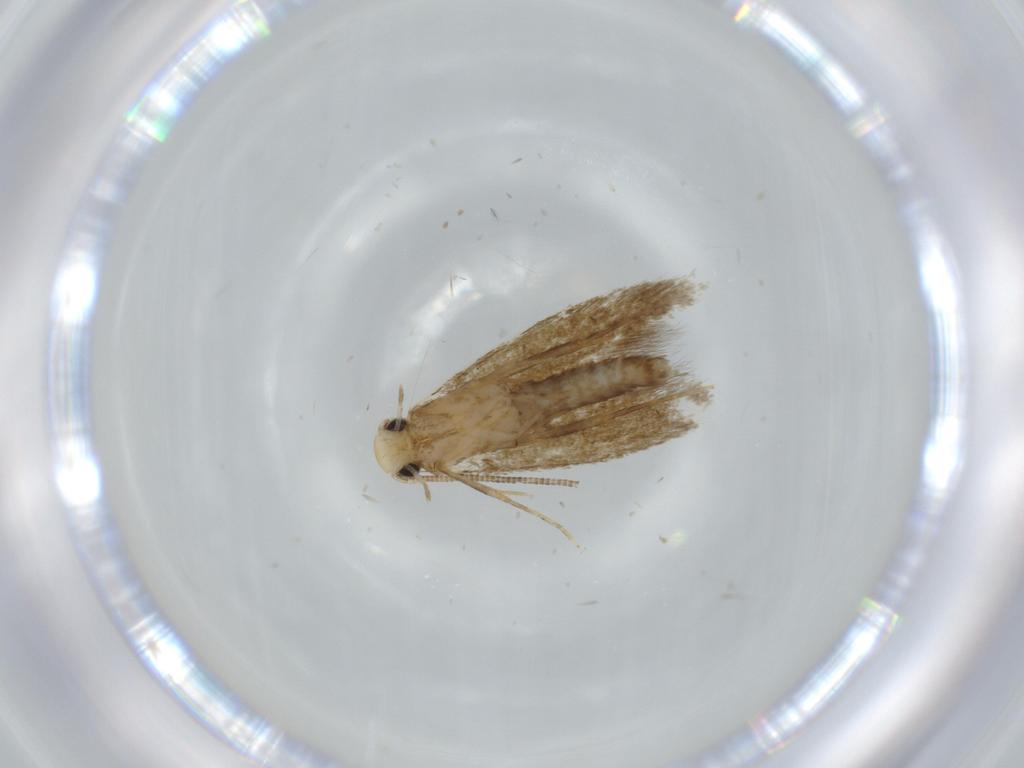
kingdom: Animalia
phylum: Arthropoda
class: Insecta
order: Lepidoptera
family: Tineidae
